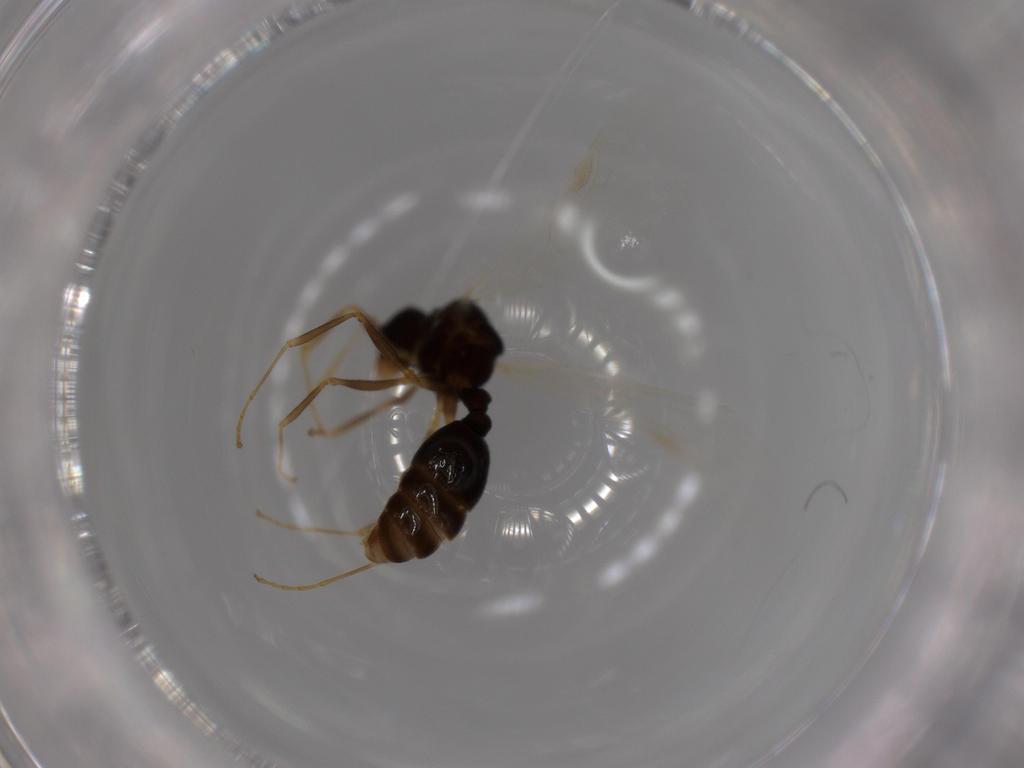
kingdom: Animalia
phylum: Arthropoda
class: Insecta
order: Hymenoptera
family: Formicidae
